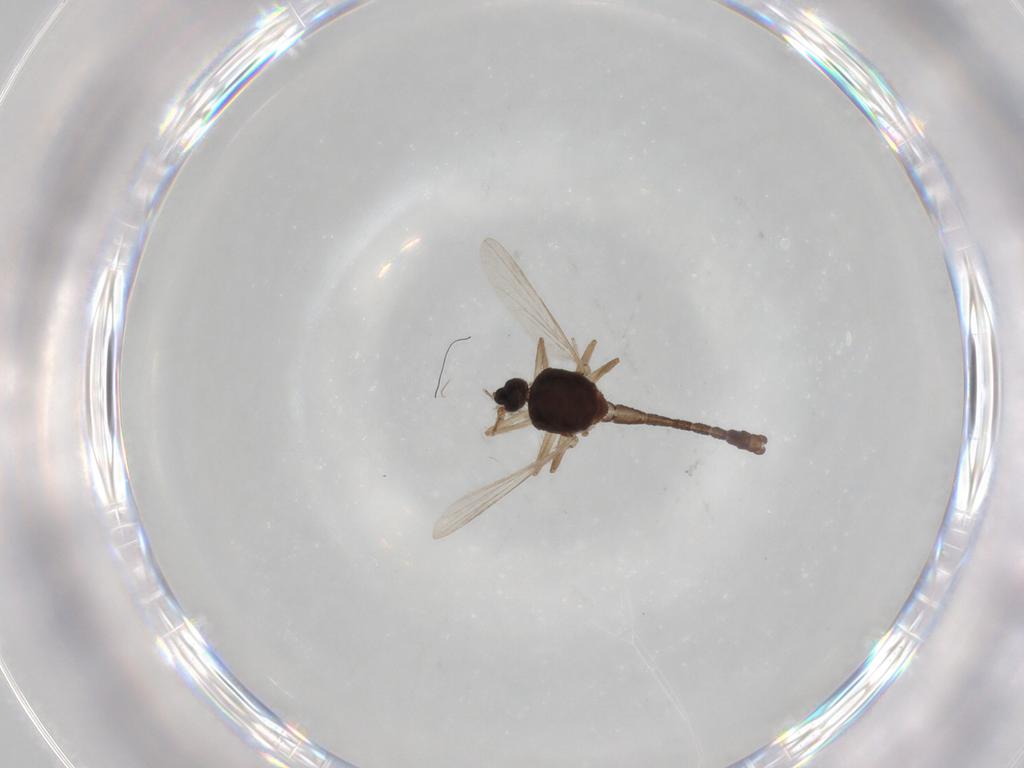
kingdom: Animalia
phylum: Arthropoda
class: Insecta
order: Diptera
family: Ceratopogonidae
